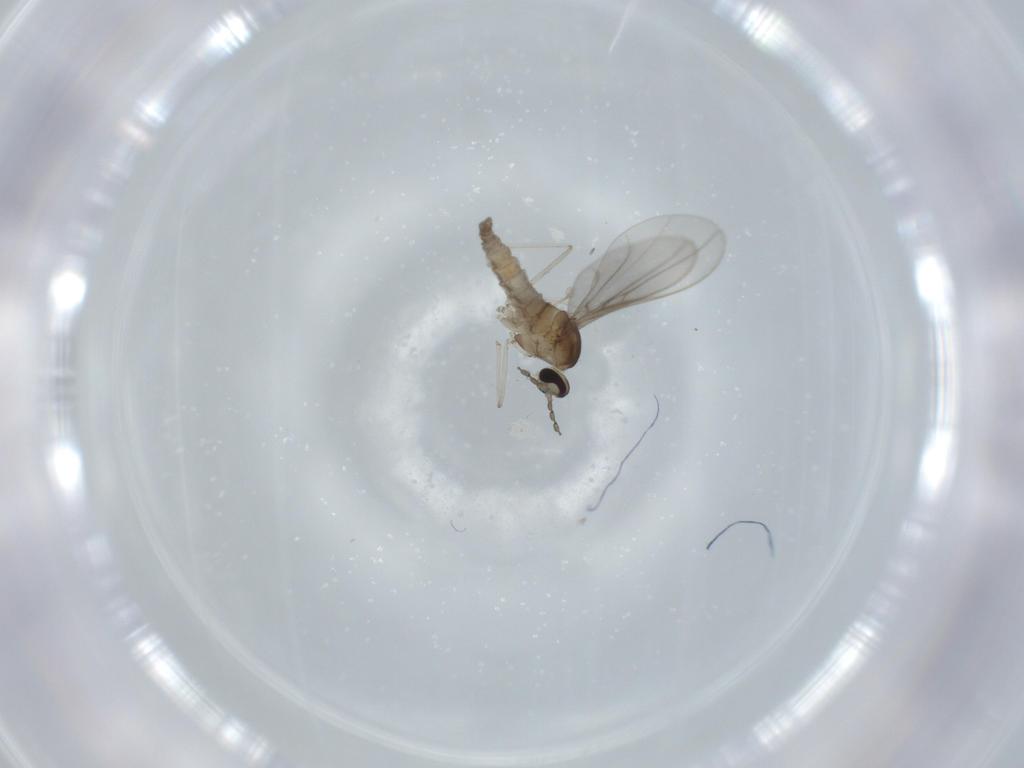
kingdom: Animalia
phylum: Arthropoda
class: Insecta
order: Diptera
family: Cecidomyiidae
